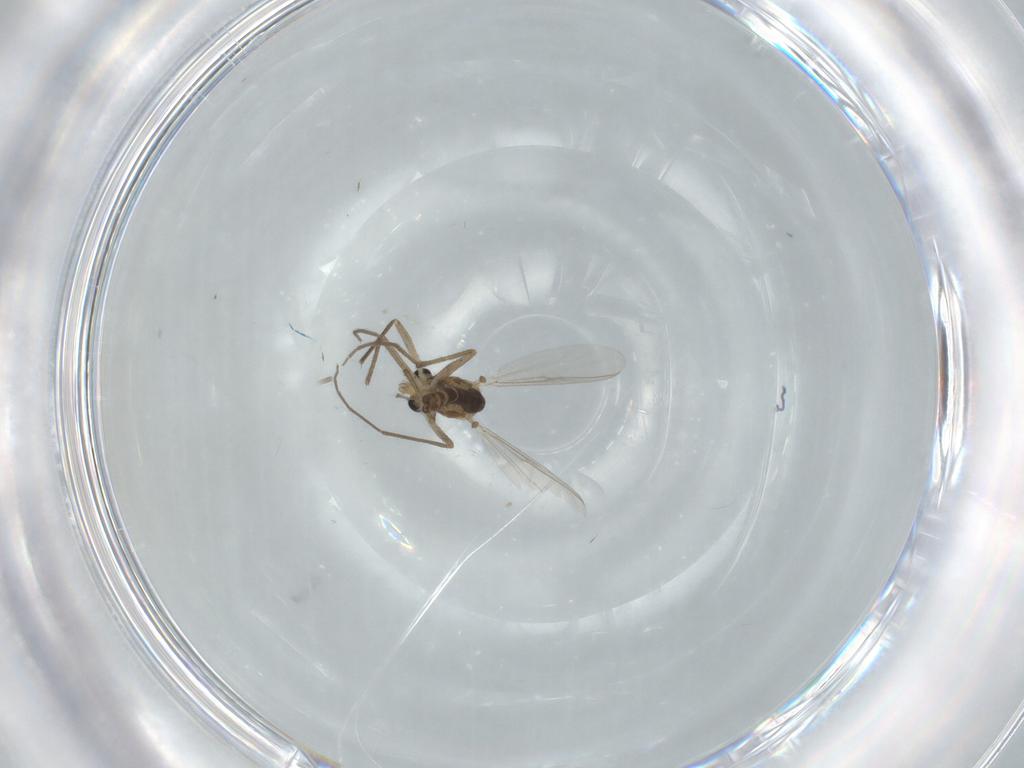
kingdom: Animalia
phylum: Arthropoda
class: Insecta
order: Diptera
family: Chironomidae
